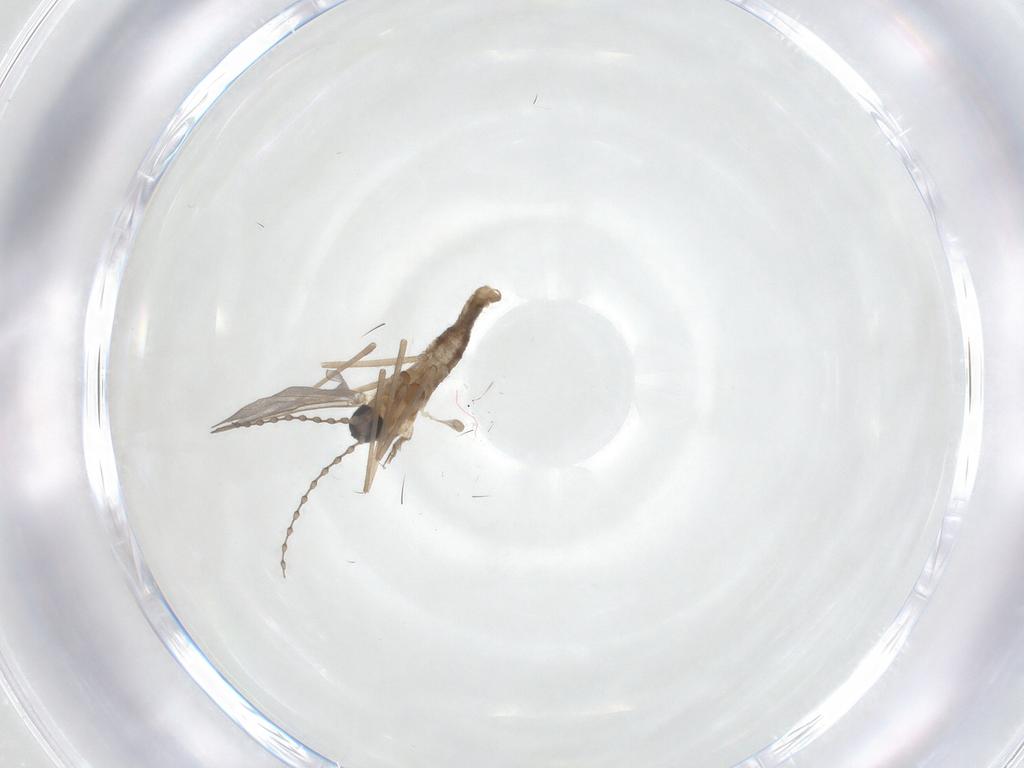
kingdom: Animalia
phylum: Arthropoda
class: Insecta
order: Diptera
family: Cecidomyiidae
